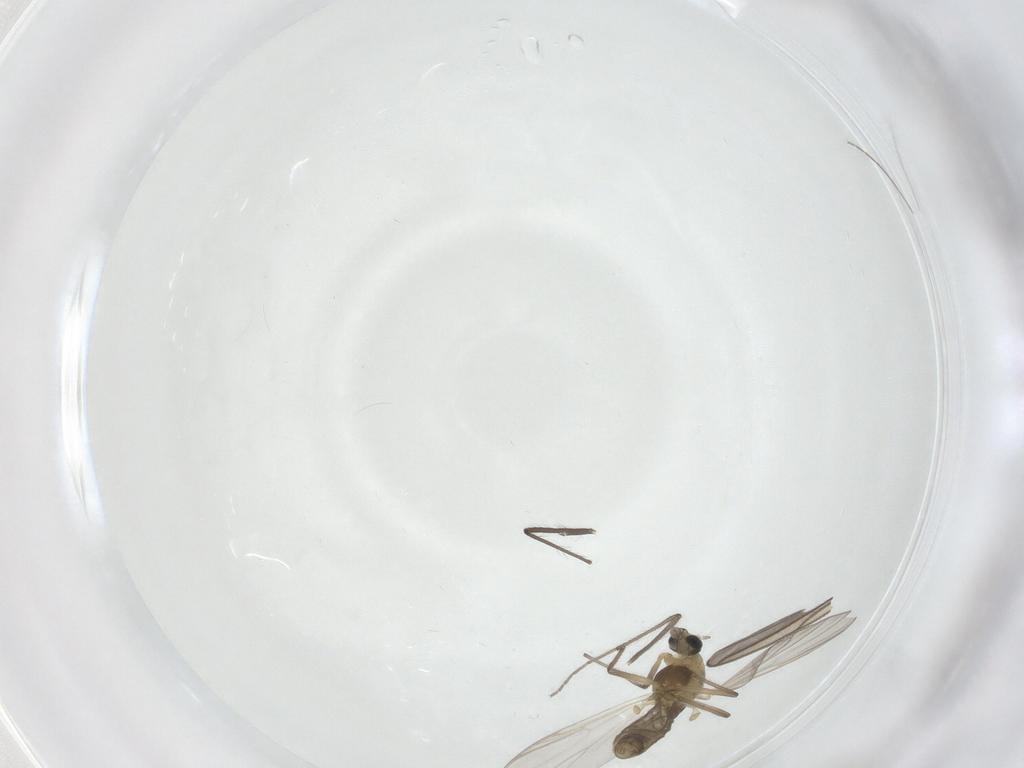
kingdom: Animalia
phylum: Arthropoda
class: Insecta
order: Diptera
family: Chironomidae
